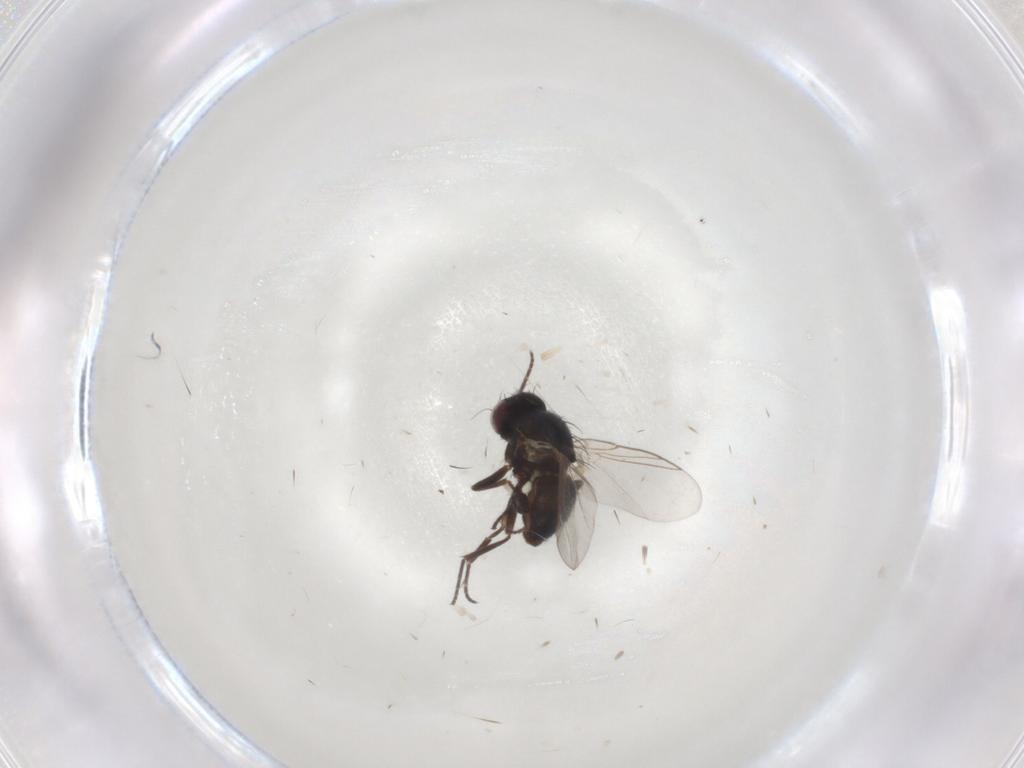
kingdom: Animalia
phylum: Arthropoda
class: Insecta
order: Diptera
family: Agromyzidae
